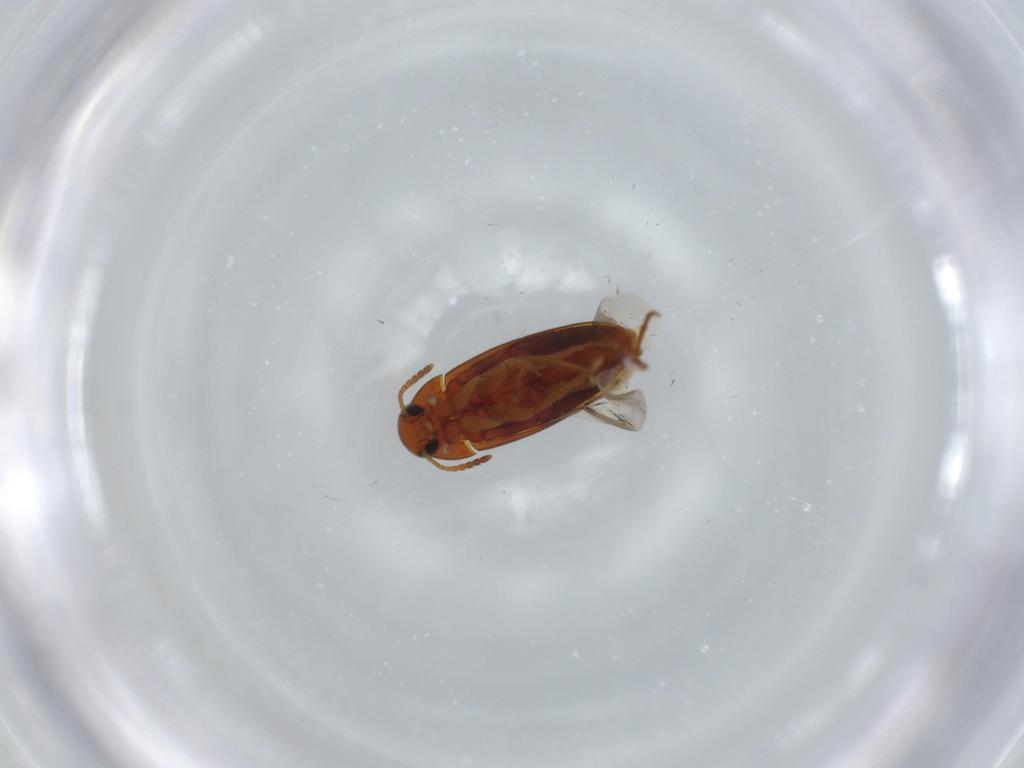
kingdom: Animalia
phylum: Arthropoda
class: Insecta
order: Coleoptera
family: Scraptiidae
